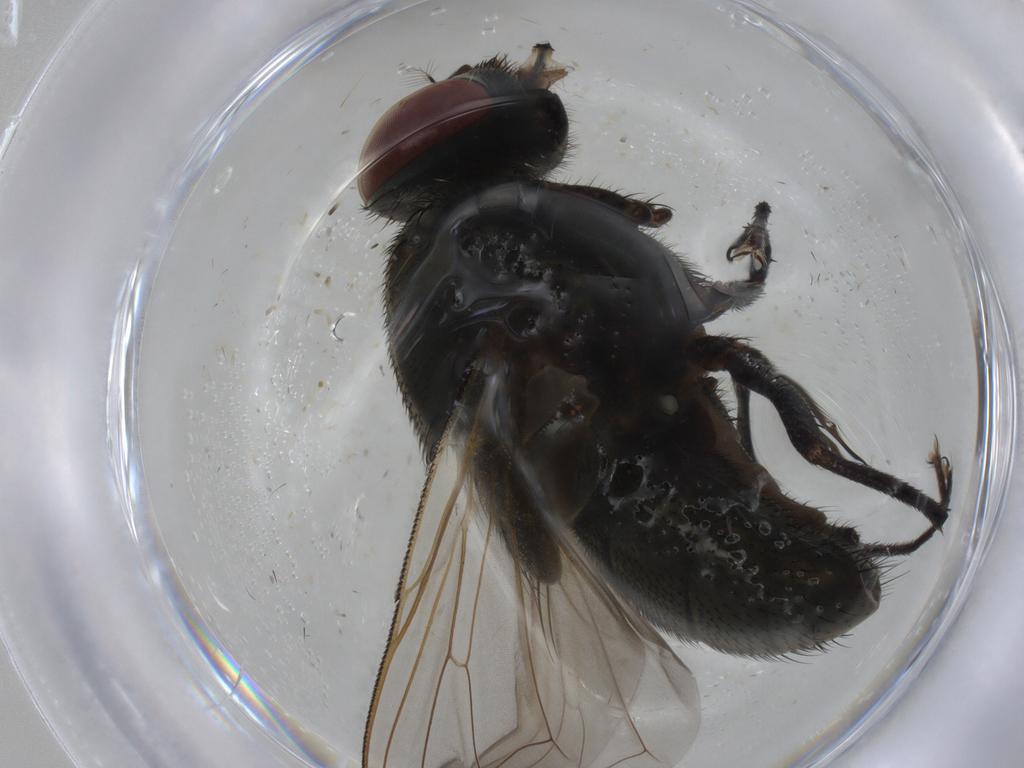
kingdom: Animalia
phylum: Arthropoda
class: Insecta
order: Diptera
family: Muscidae
